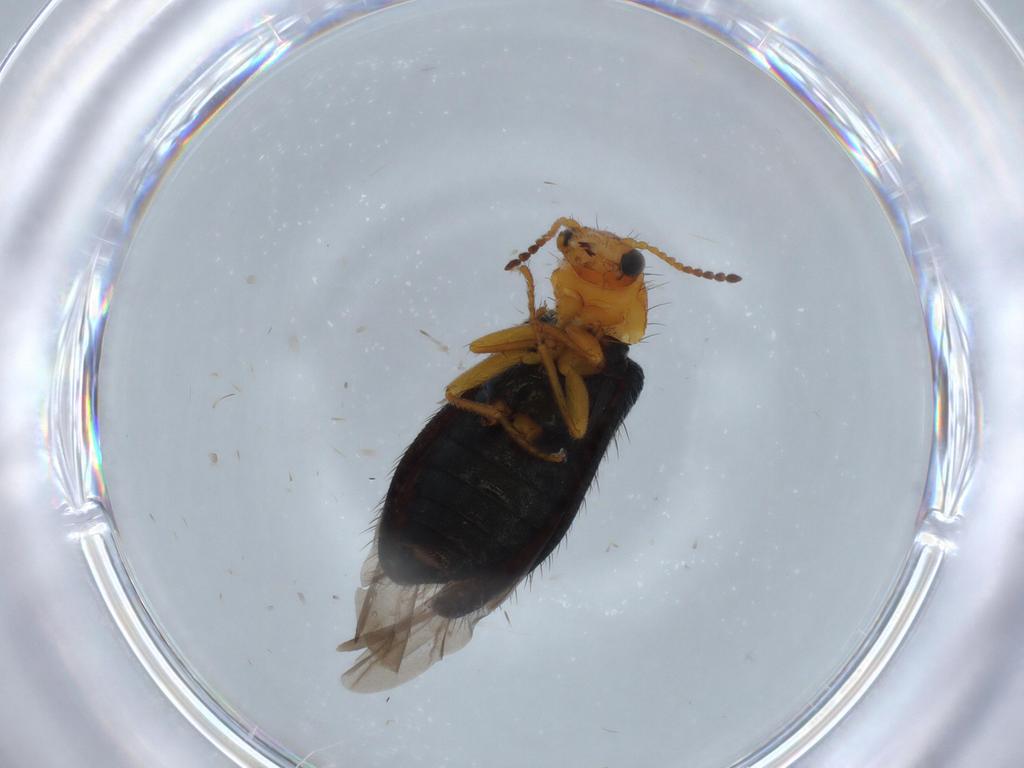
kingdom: Animalia
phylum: Arthropoda
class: Insecta
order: Coleoptera
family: Melyridae
